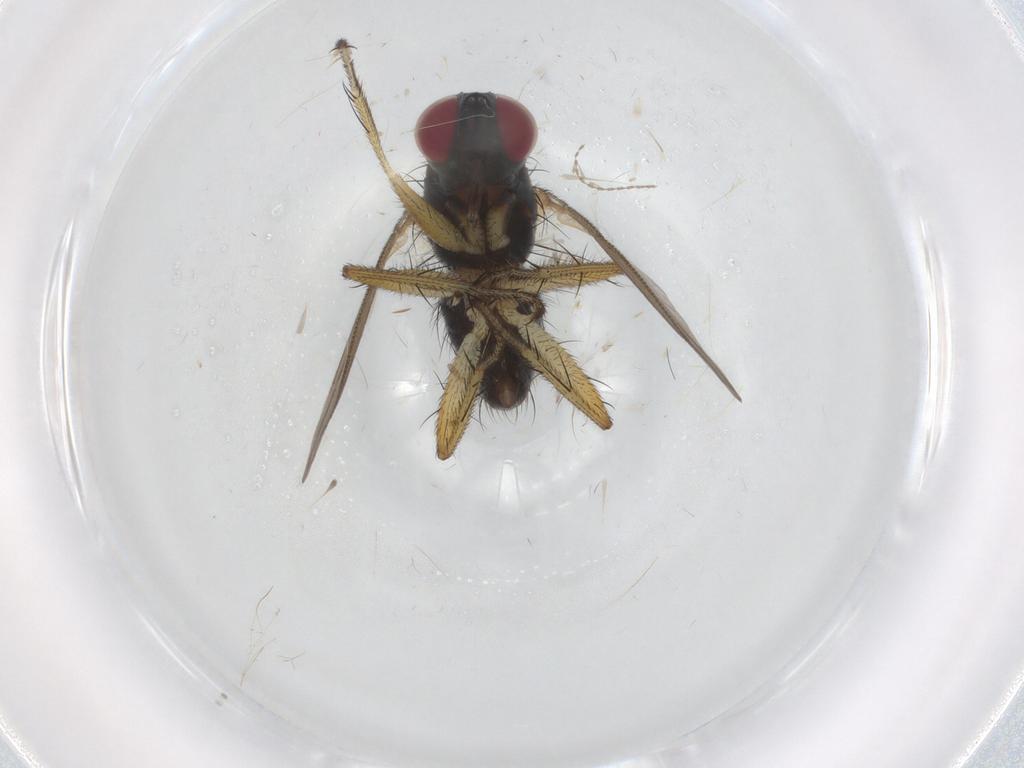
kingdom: Animalia
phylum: Arthropoda
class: Insecta
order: Diptera
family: Muscidae
